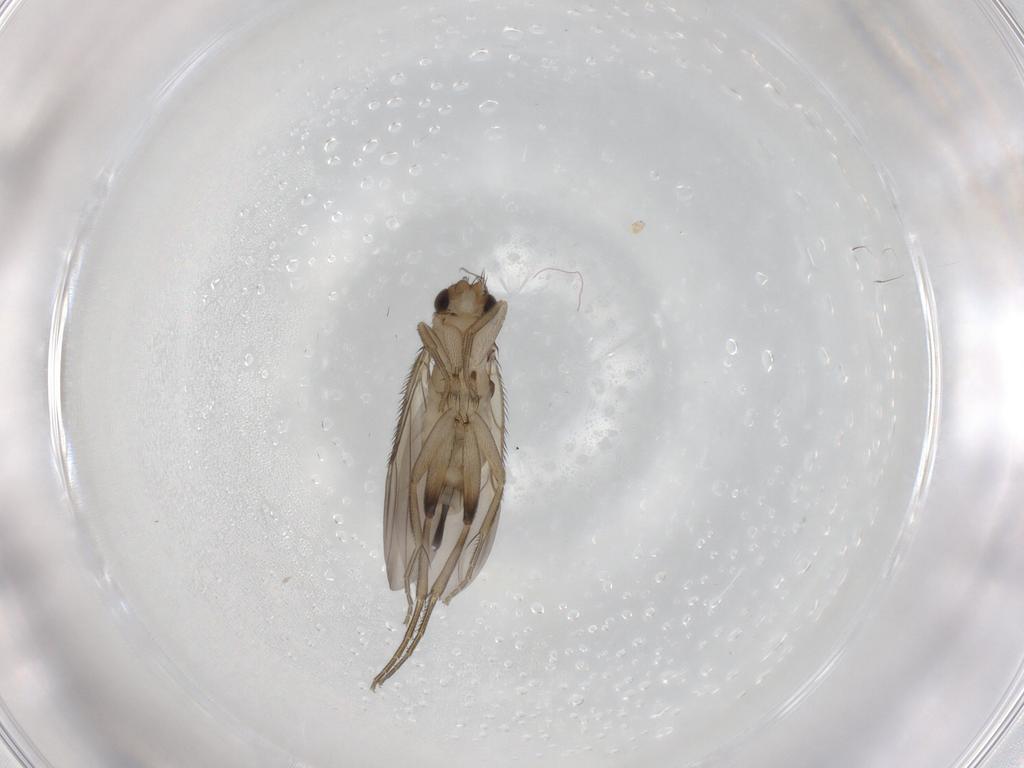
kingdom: Animalia
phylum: Arthropoda
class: Insecta
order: Diptera
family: Phoridae
